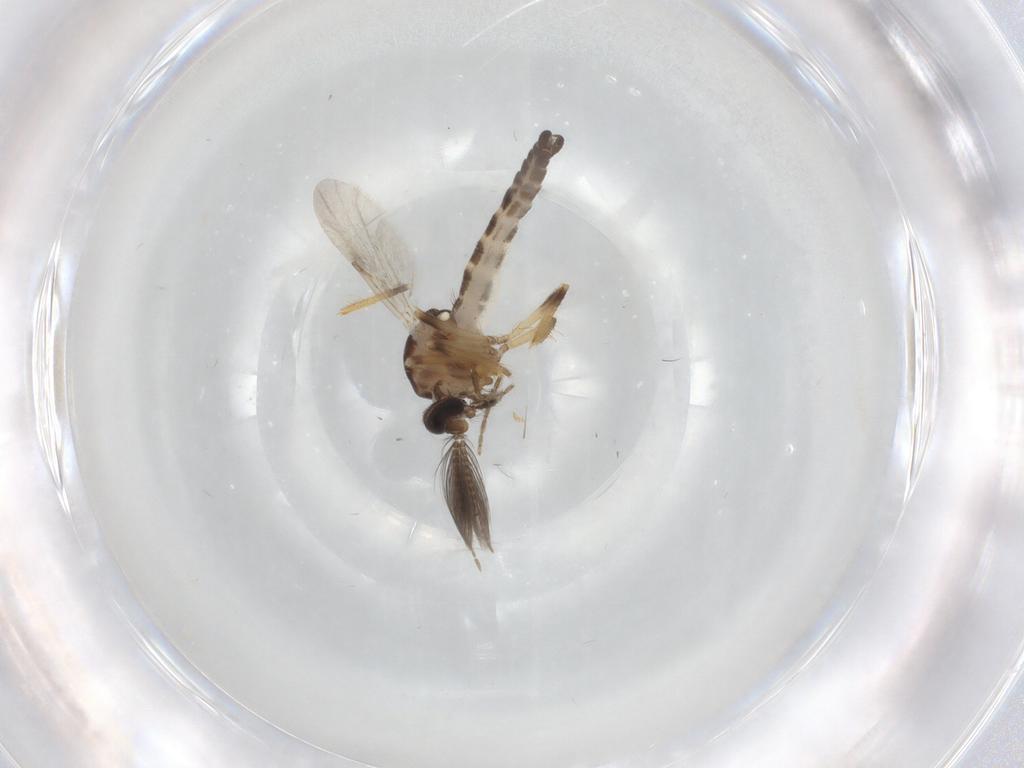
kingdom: Animalia
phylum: Arthropoda
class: Insecta
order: Diptera
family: Ceratopogonidae
